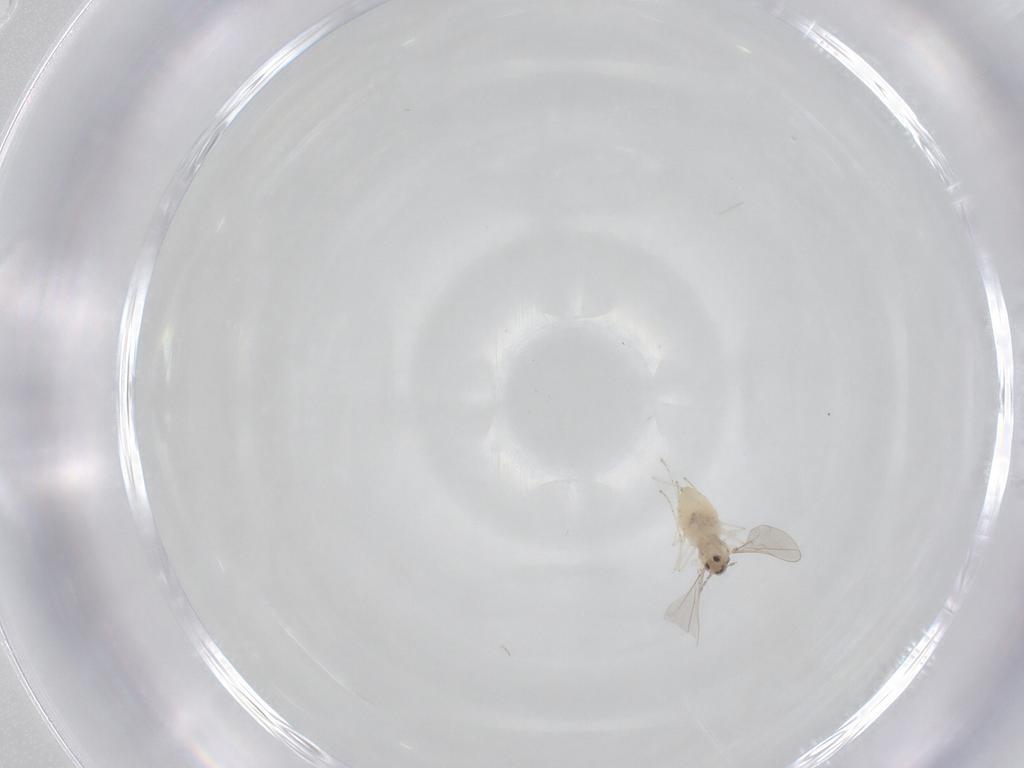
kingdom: Animalia
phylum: Arthropoda
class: Insecta
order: Diptera
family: Cecidomyiidae
